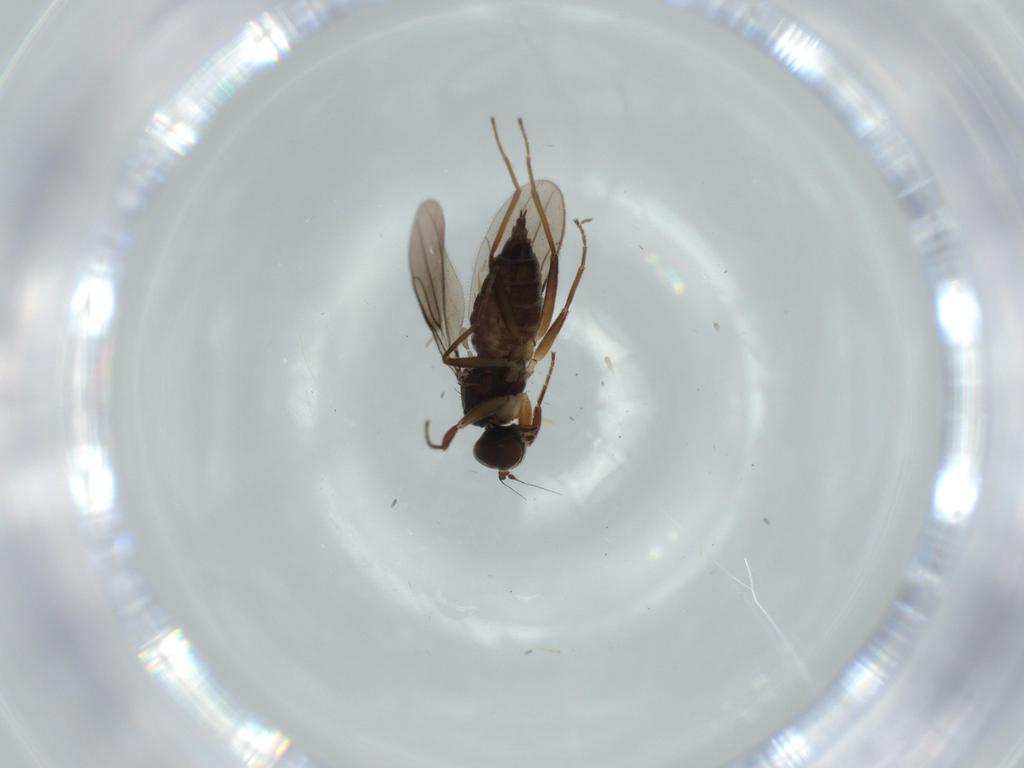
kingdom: Animalia
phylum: Arthropoda
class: Insecta
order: Diptera
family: Hybotidae
